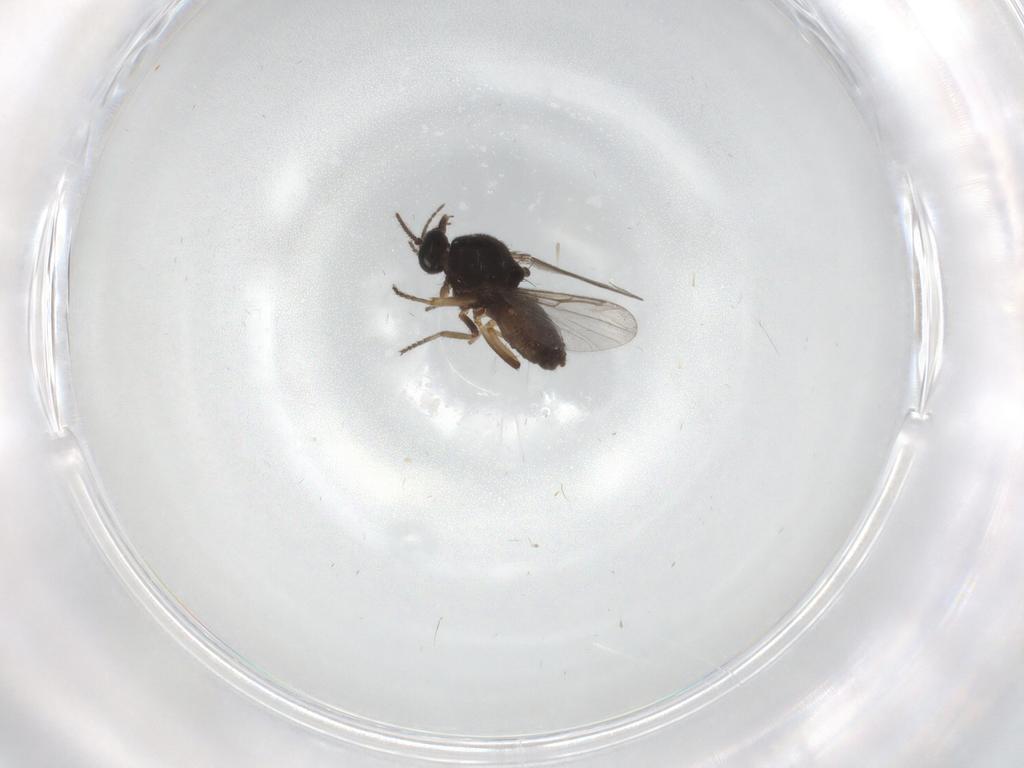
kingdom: Animalia
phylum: Arthropoda
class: Insecta
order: Diptera
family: Ceratopogonidae
